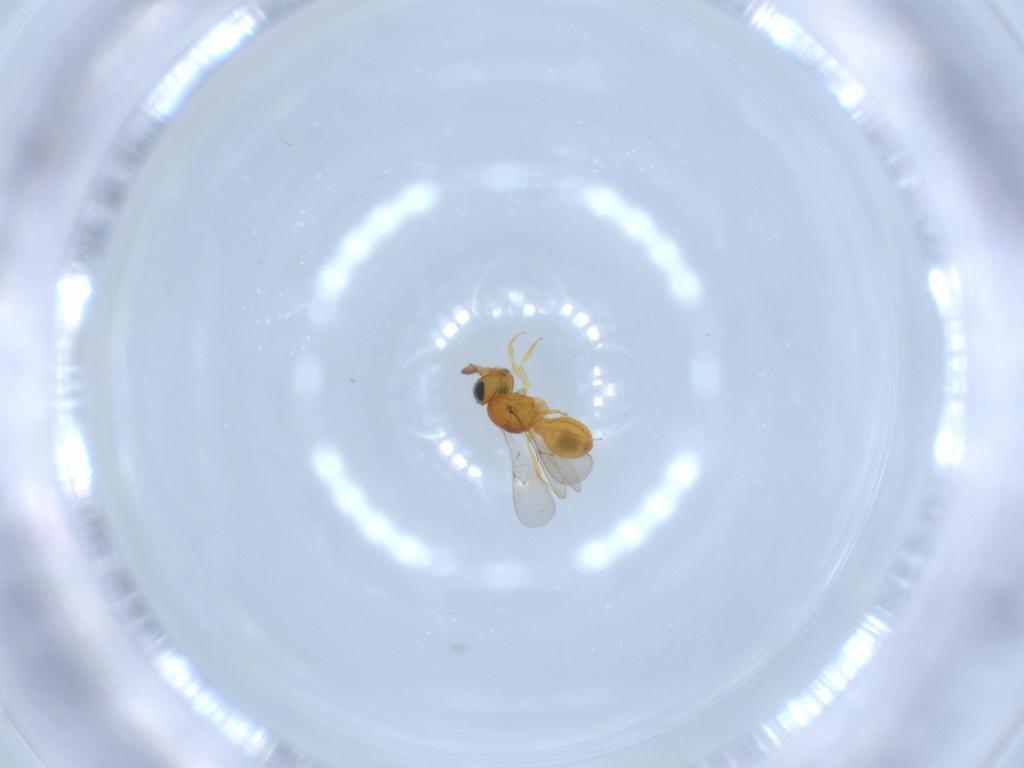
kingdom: Animalia
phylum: Arthropoda
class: Insecta
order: Hymenoptera
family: Scelionidae
